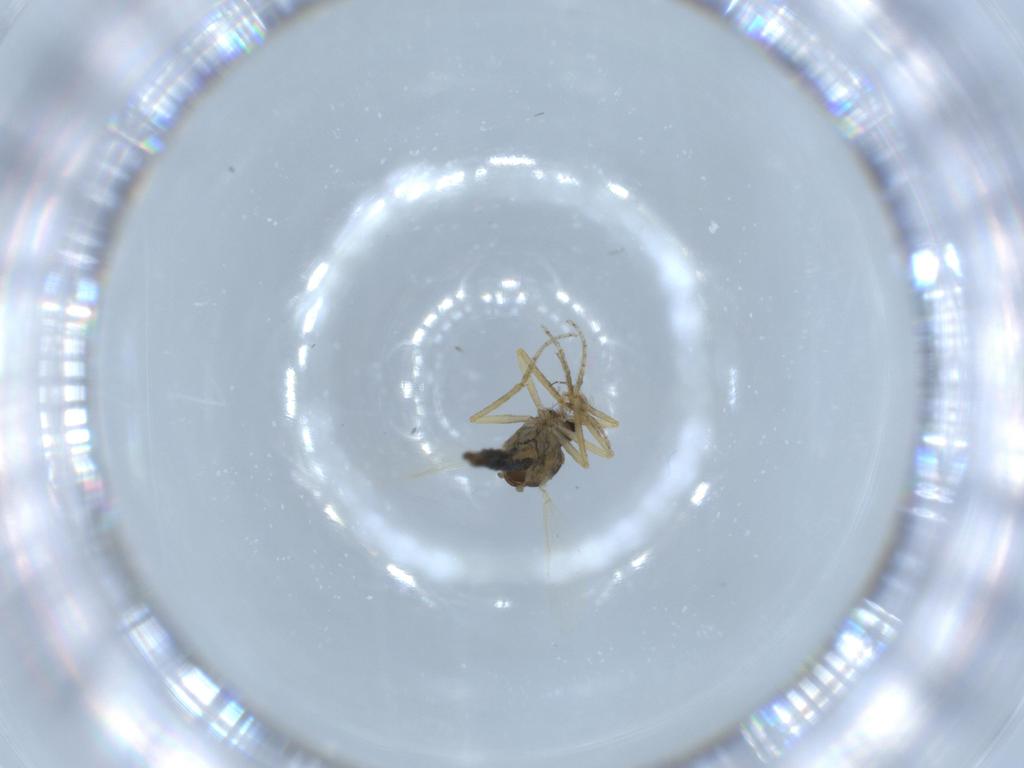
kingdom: Animalia
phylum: Arthropoda
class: Insecta
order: Diptera
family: Ceratopogonidae
